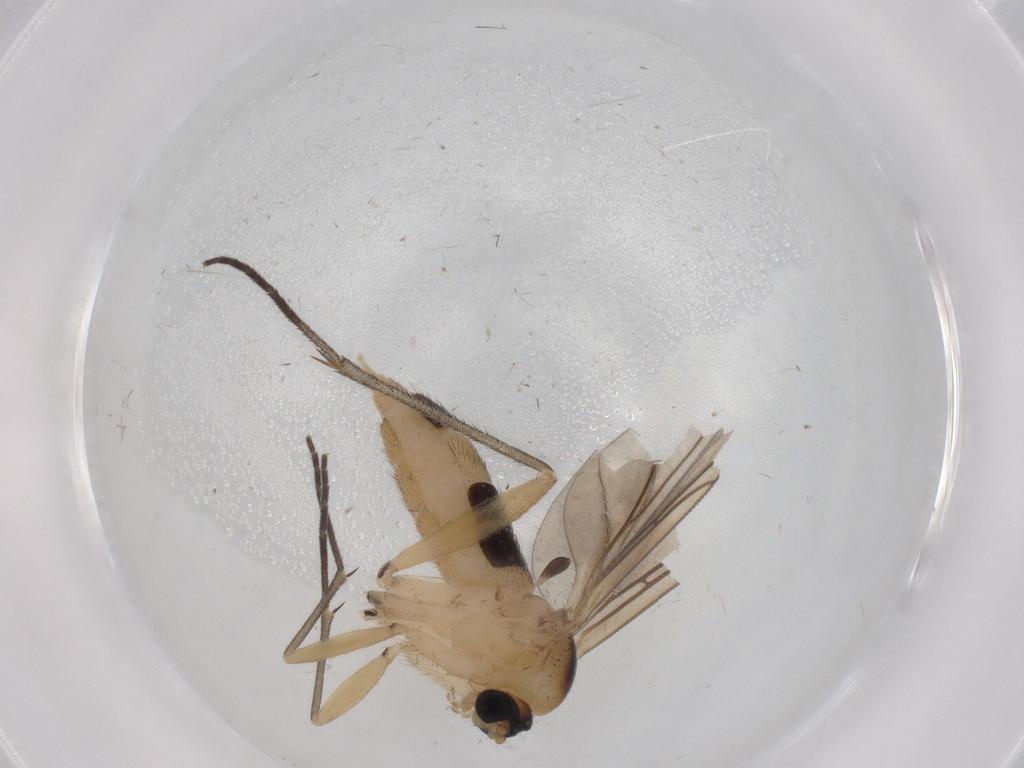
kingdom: Animalia
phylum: Arthropoda
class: Insecta
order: Diptera
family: Sciaridae
